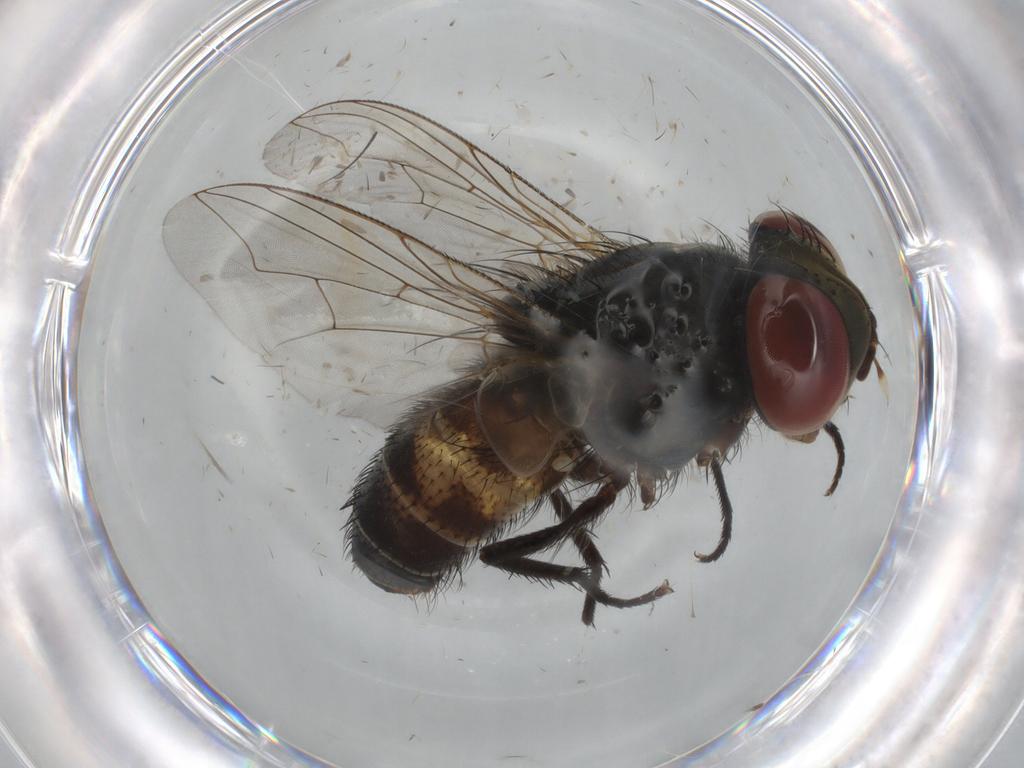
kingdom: Animalia
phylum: Arthropoda
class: Insecta
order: Diptera
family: Sarcophagidae
